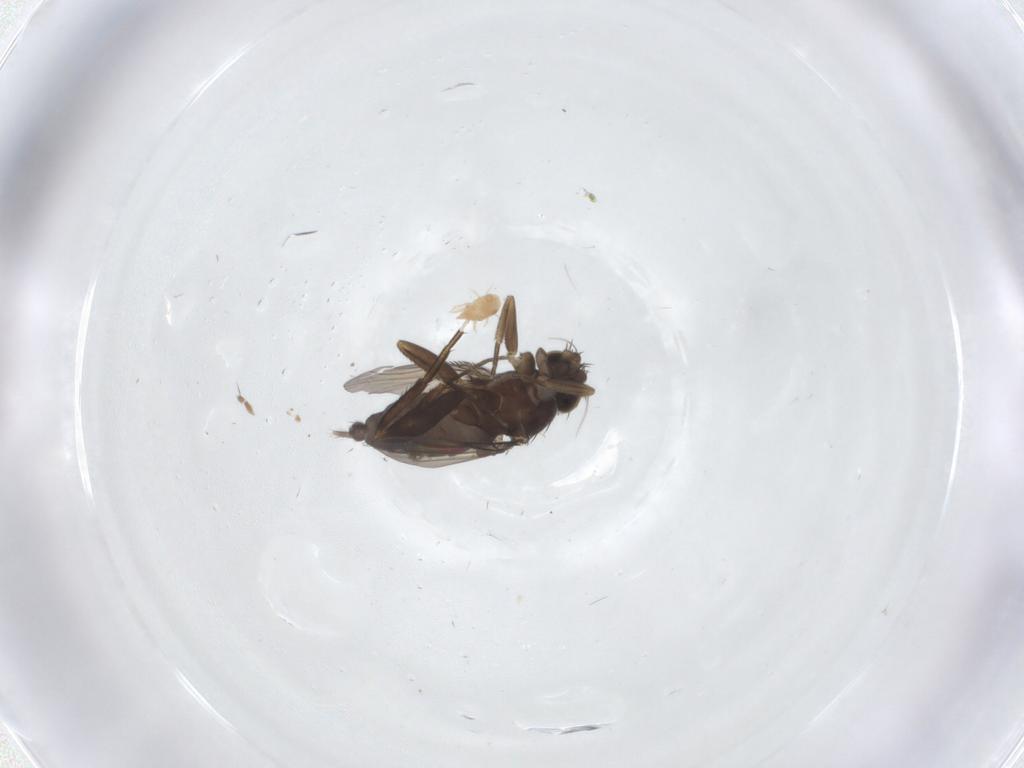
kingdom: Animalia
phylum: Arthropoda
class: Insecta
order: Diptera
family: Phoridae
